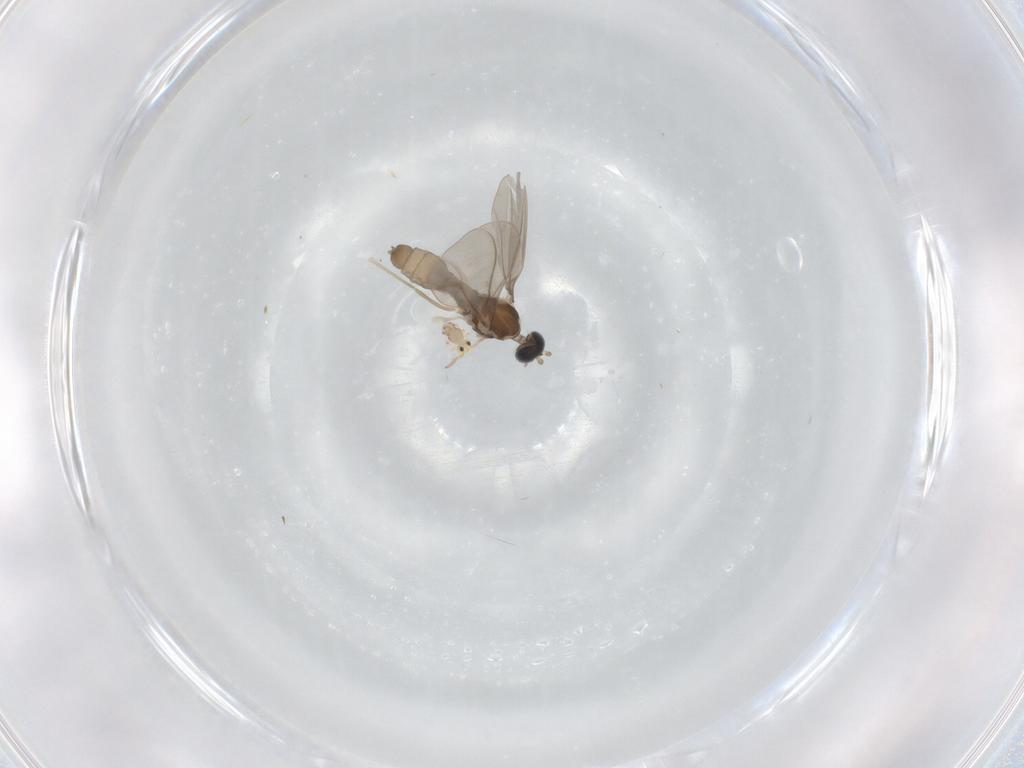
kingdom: Animalia
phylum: Arthropoda
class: Insecta
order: Diptera
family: Cecidomyiidae
